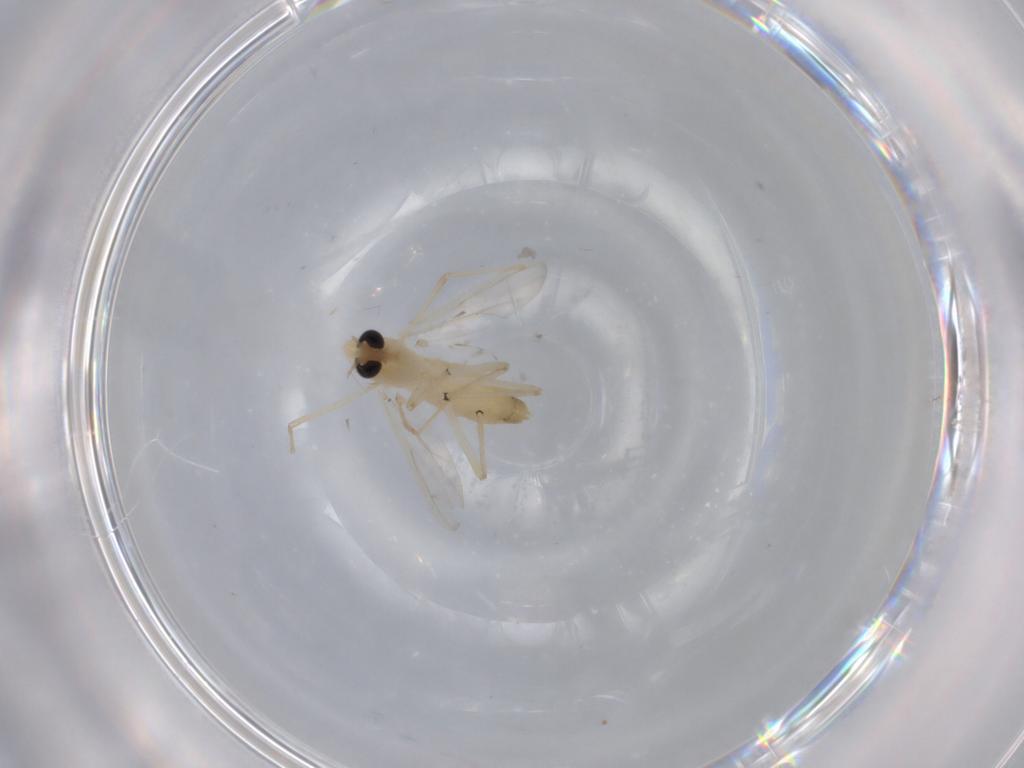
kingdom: Animalia
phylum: Arthropoda
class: Insecta
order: Diptera
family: Chironomidae
